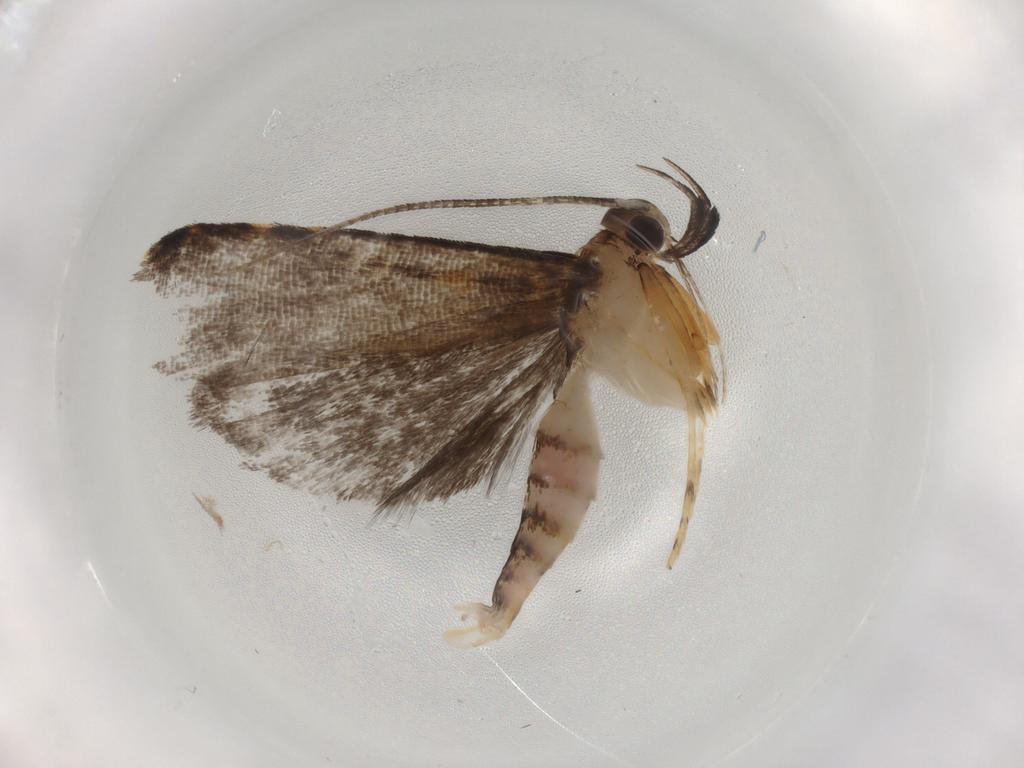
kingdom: Animalia
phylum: Arthropoda
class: Insecta
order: Lepidoptera
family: Cosmopterigidae
